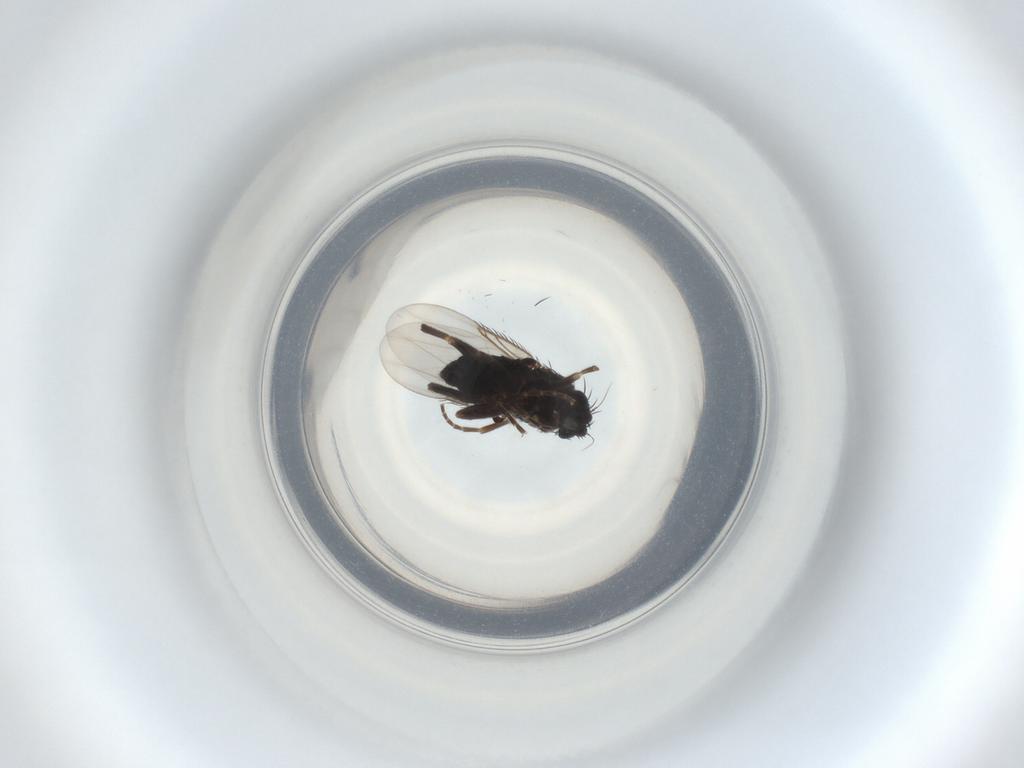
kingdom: Animalia
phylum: Arthropoda
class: Insecta
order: Diptera
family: Phoridae
